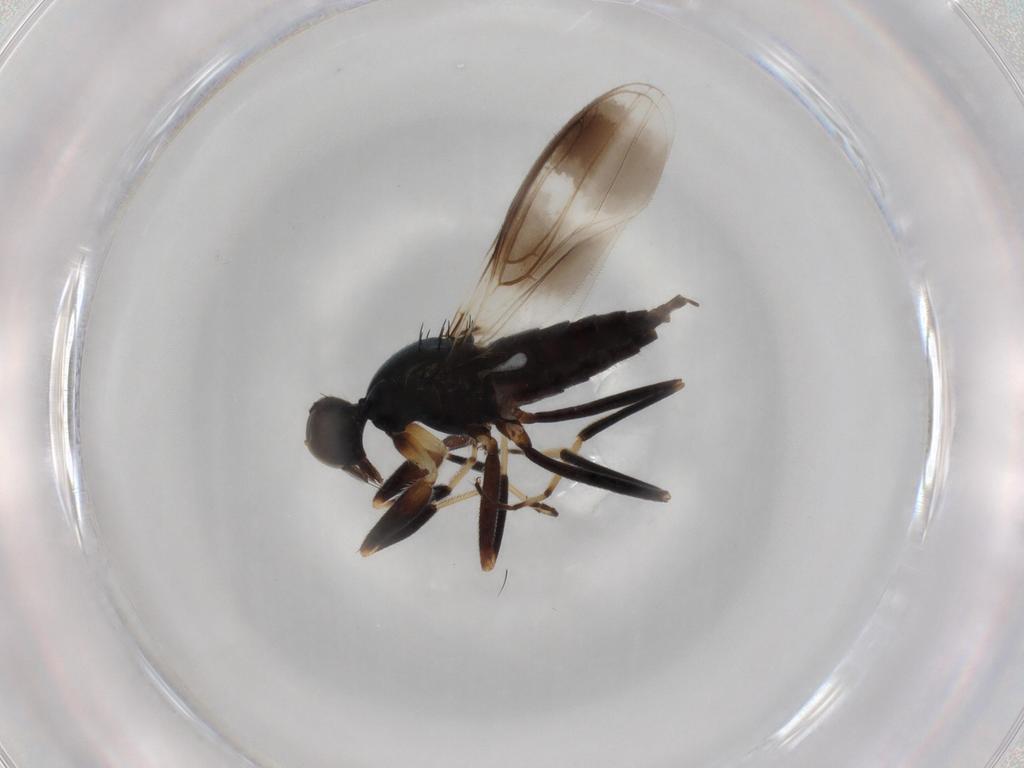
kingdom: Animalia
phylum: Arthropoda
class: Insecta
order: Diptera
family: Hybotidae
